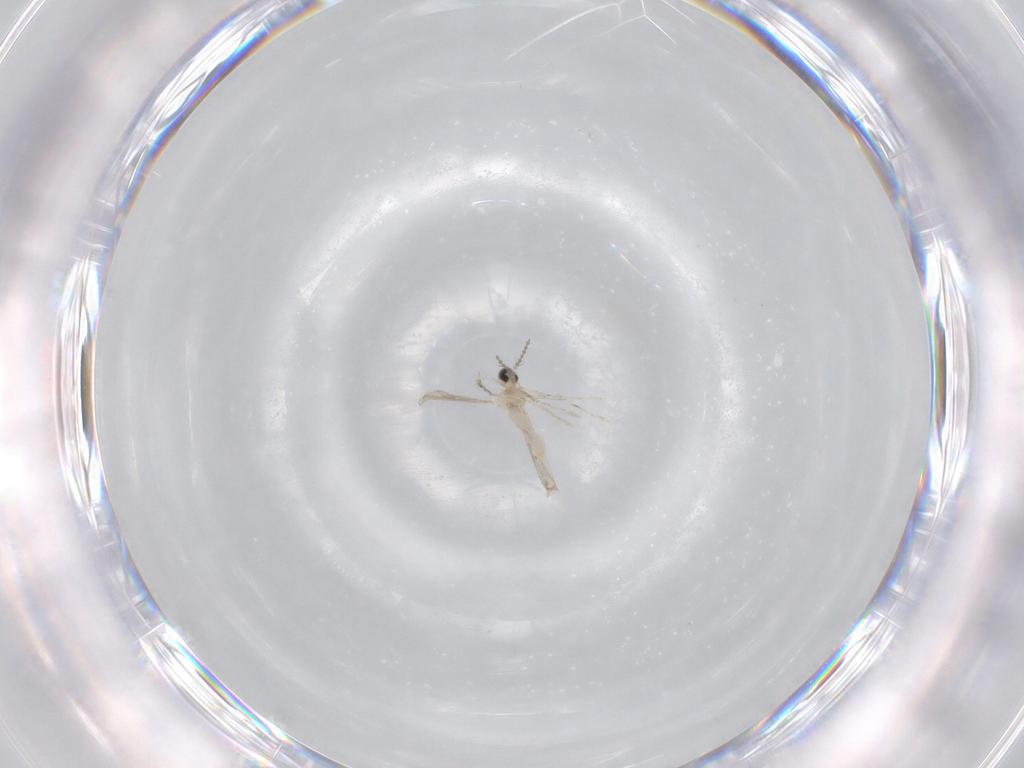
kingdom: Animalia
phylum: Arthropoda
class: Insecta
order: Diptera
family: Cecidomyiidae
